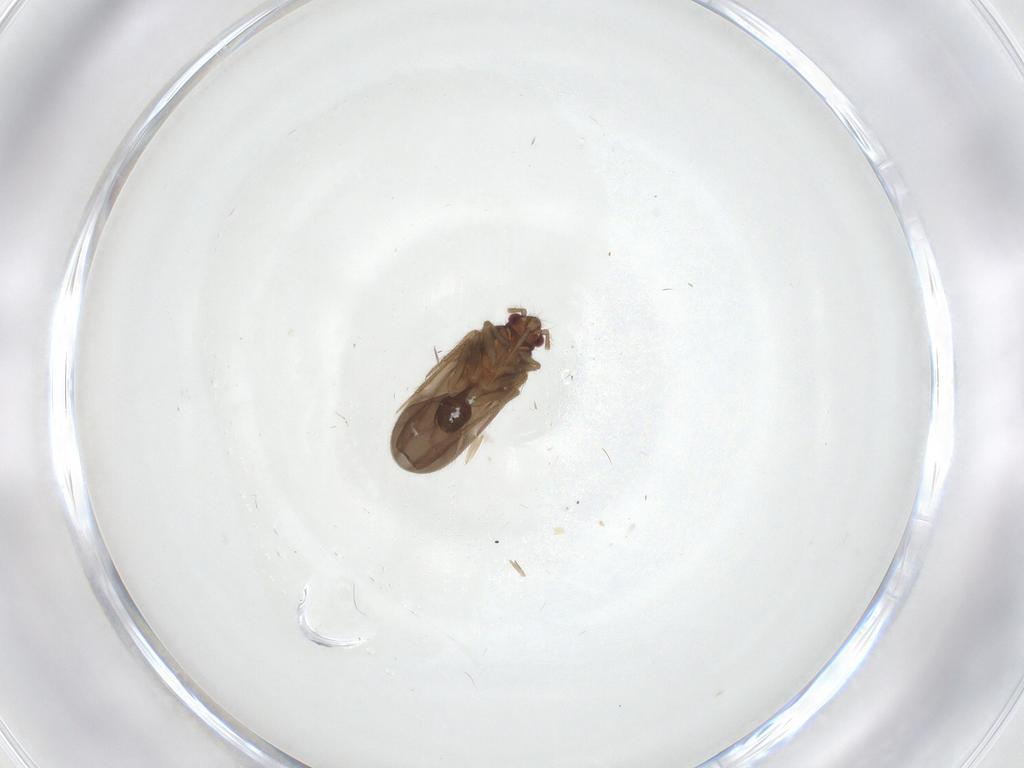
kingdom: Animalia
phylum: Arthropoda
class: Insecta
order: Hemiptera
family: Ceratocombidae
